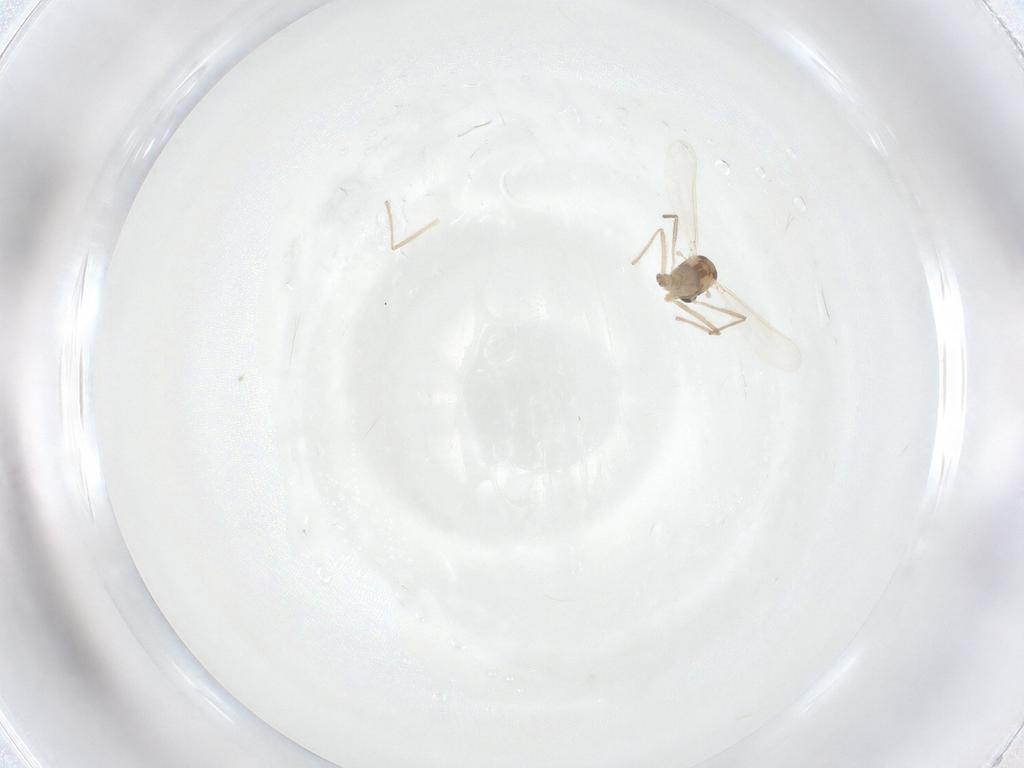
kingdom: Animalia
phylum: Arthropoda
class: Insecta
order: Diptera
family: Chironomidae
